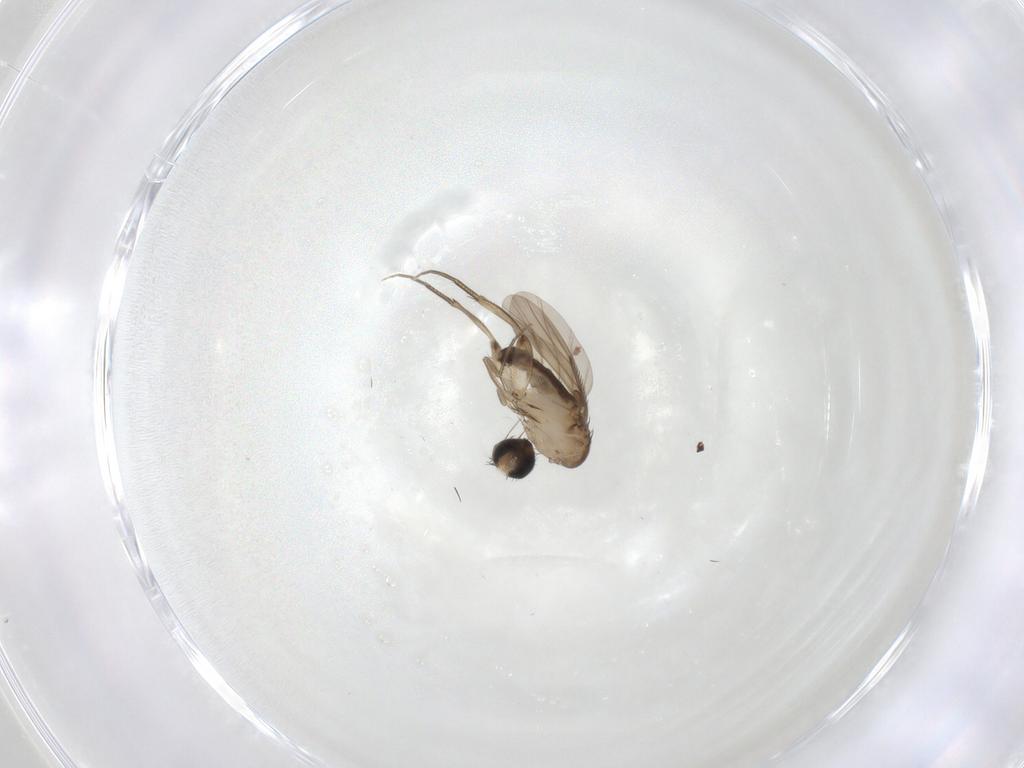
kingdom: Animalia
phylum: Arthropoda
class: Insecta
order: Diptera
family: Phoridae
